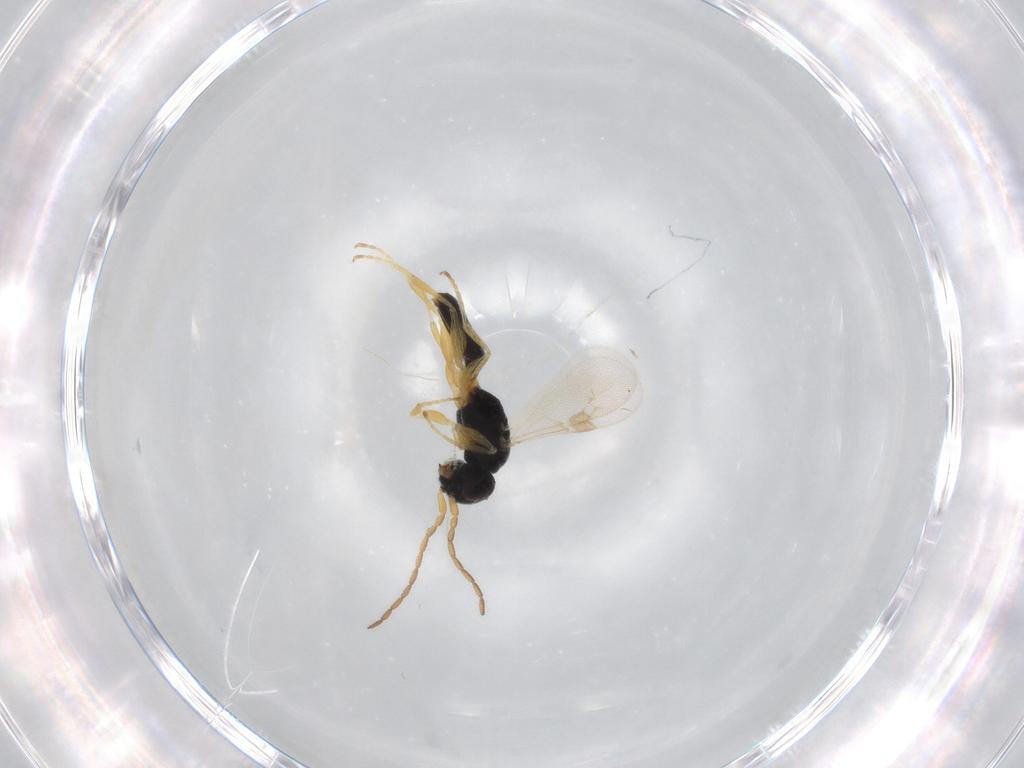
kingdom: Animalia
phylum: Arthropoda
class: Insecta
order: Hymenoptera
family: Dryinidae
